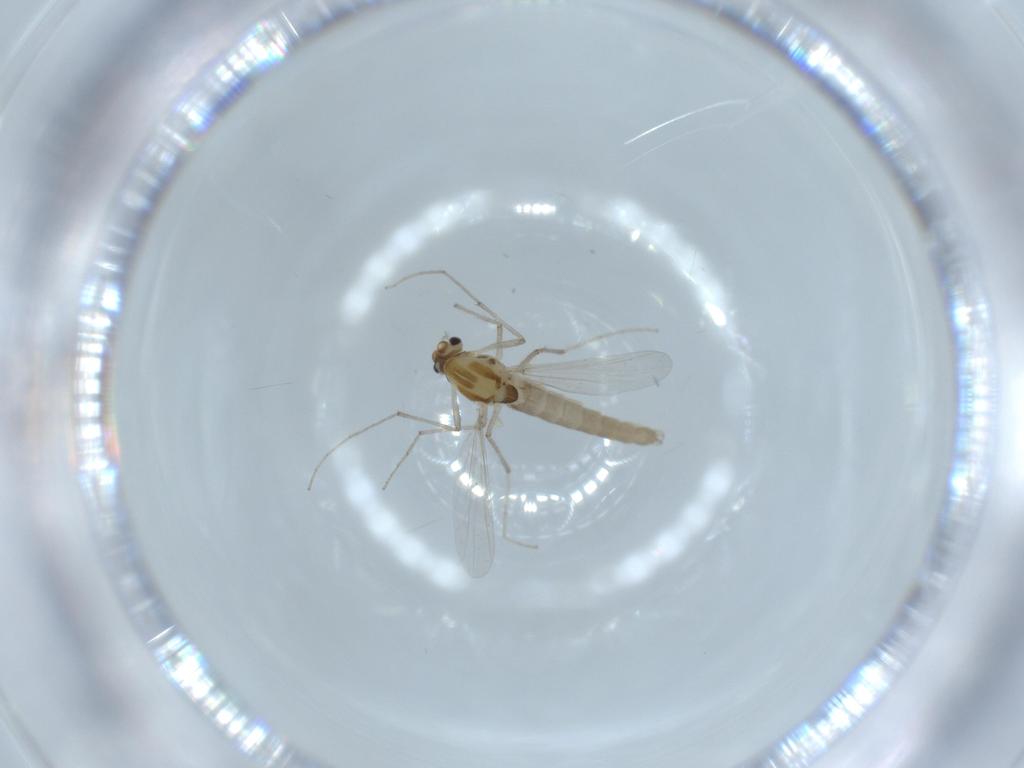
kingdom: Animalia
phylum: Arthropoda
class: Insecta
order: Diptera
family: Chironomidae
